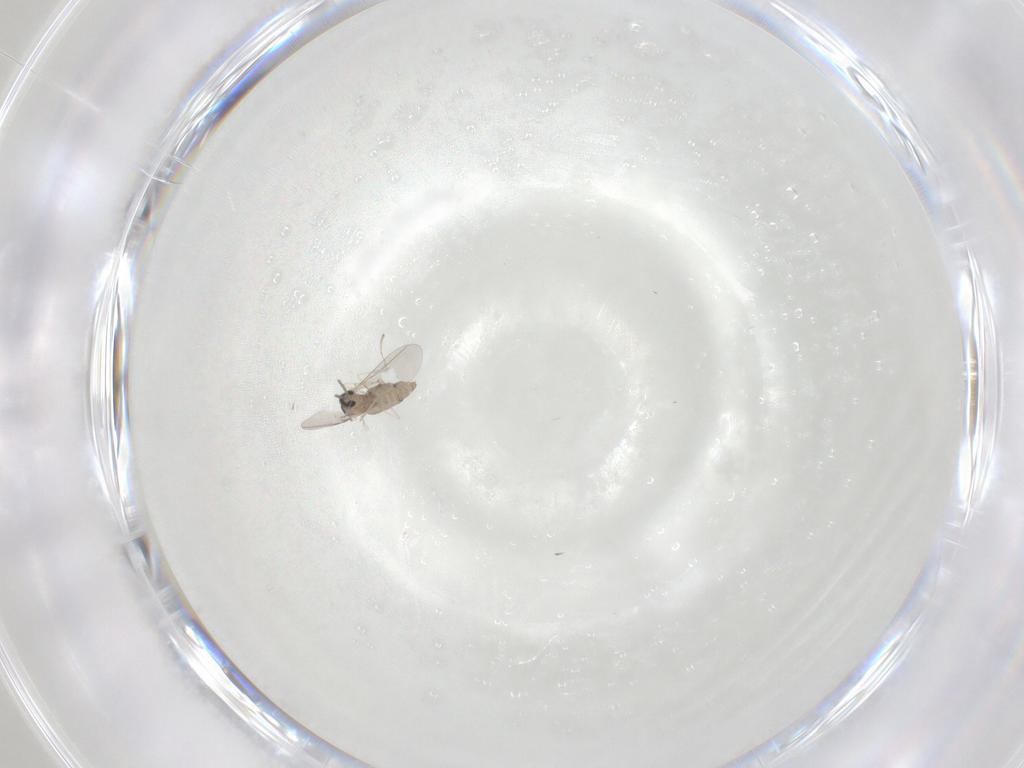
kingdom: Animalia
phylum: Arthropoda
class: Insecta
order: Diptera
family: Cecidomyiidae
